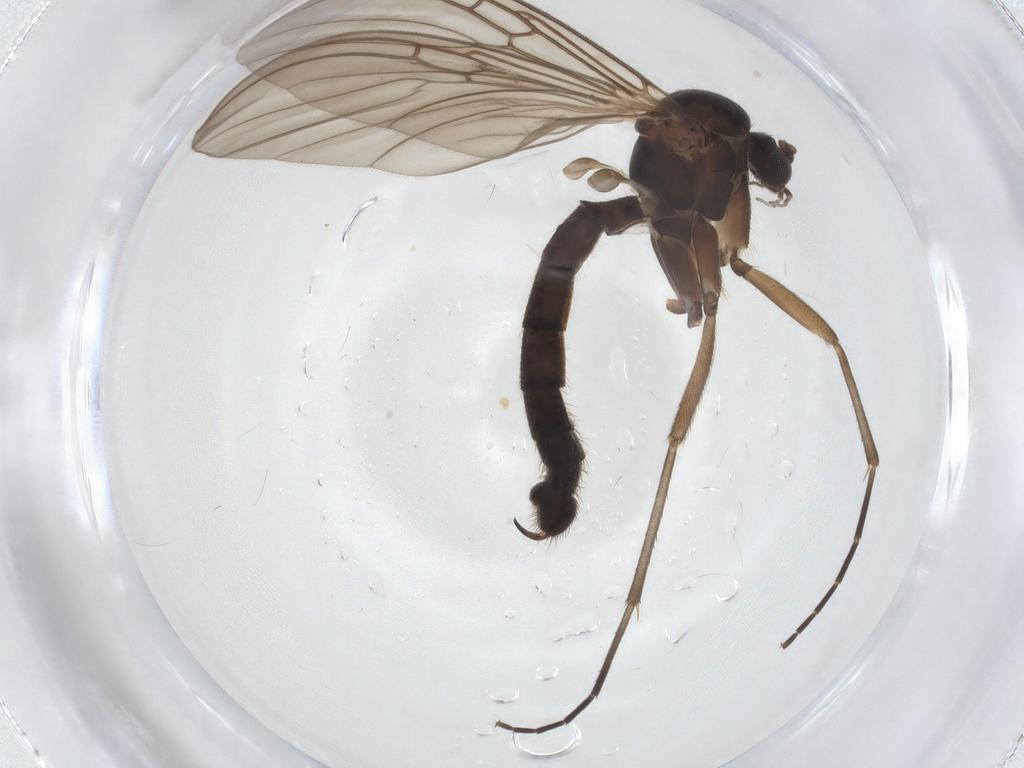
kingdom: Animalia
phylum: Arthropoda
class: Insecta
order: Diptera
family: Mycetophilidae
